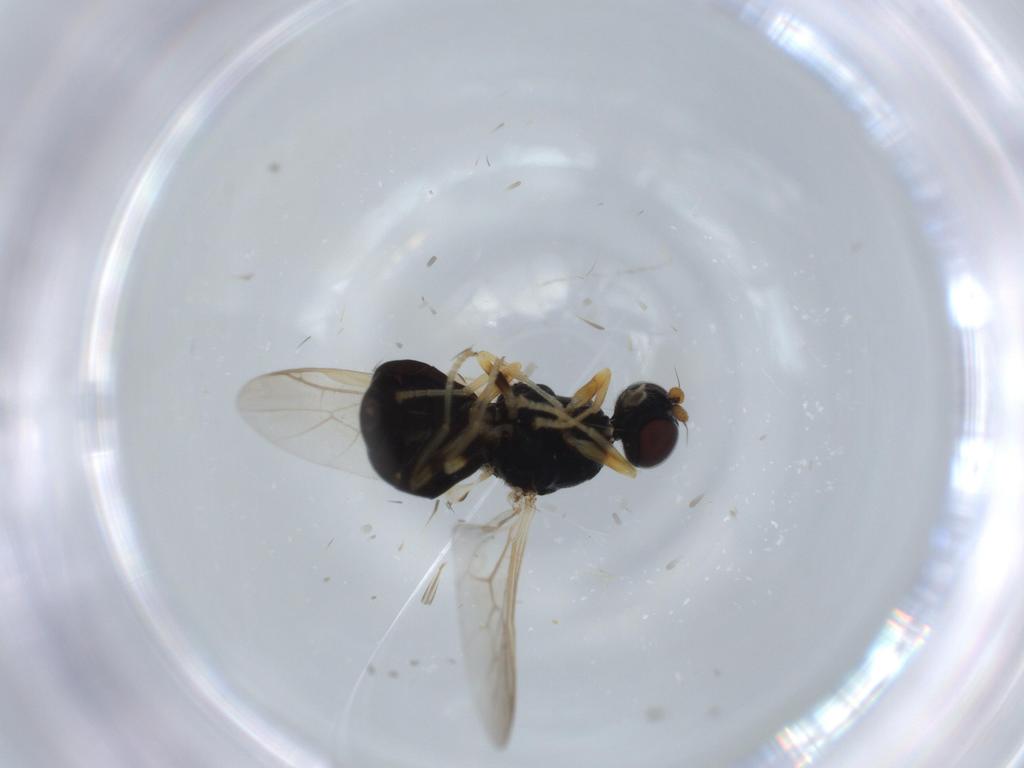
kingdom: Animalia
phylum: Arthropoda
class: Insecta
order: Diptera
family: Stratiomyidae
